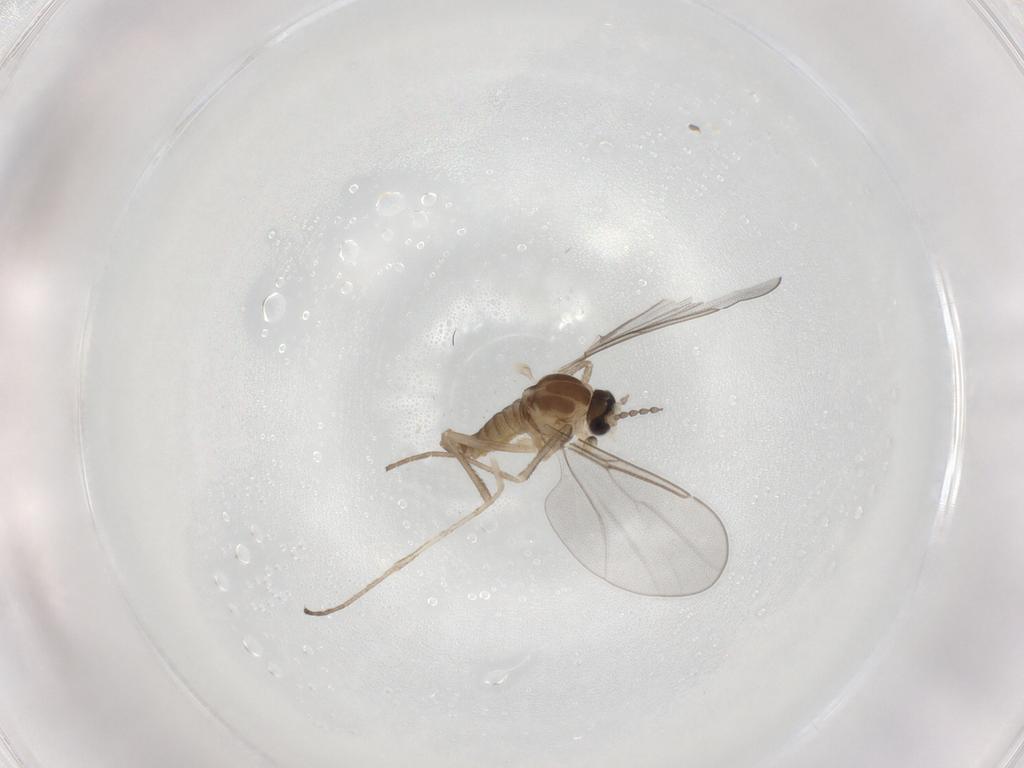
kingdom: Animalia
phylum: Arthropoda
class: Insecta
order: Diptera
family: Cecidomyiidae
